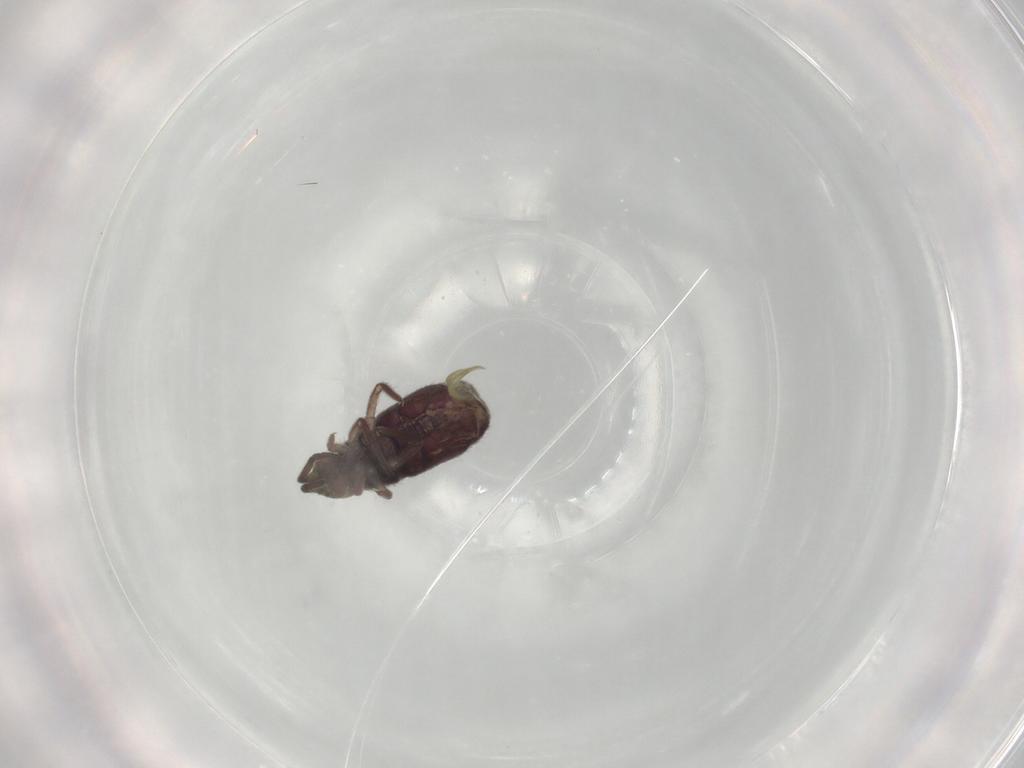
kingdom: Animalia
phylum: Arthropoda
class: Collembola
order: Entomobryomorpha
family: Isotomidae
